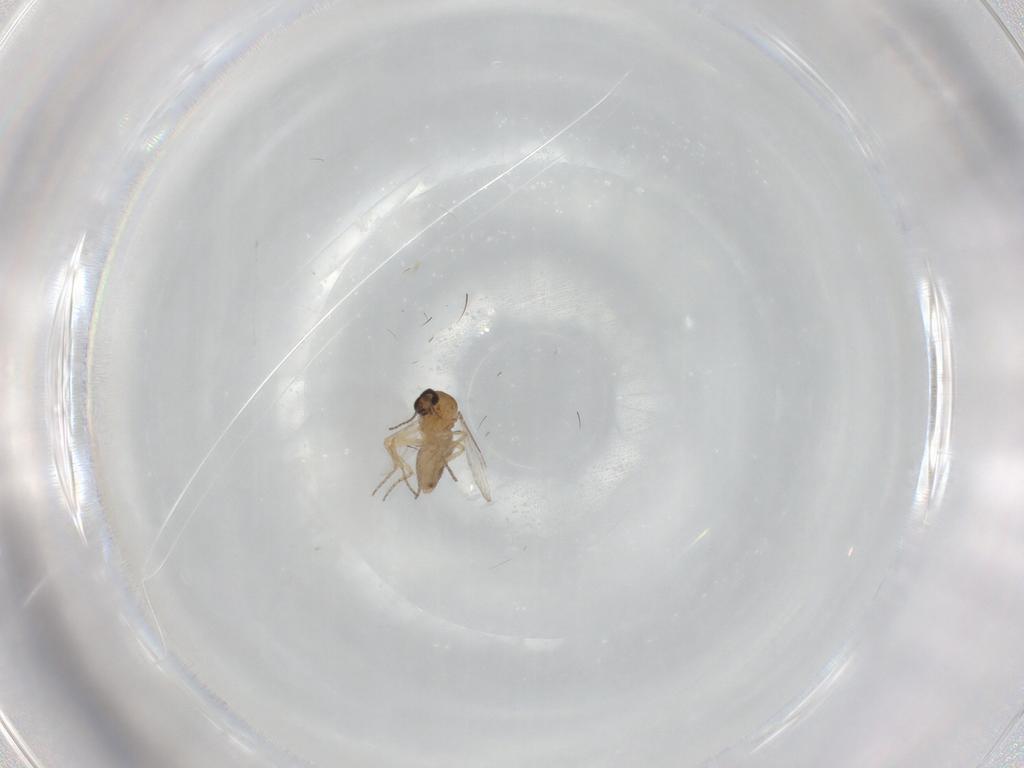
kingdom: Animalia
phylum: Arthropoda
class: Insecta
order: Diptera
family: Ceratopogonidae
